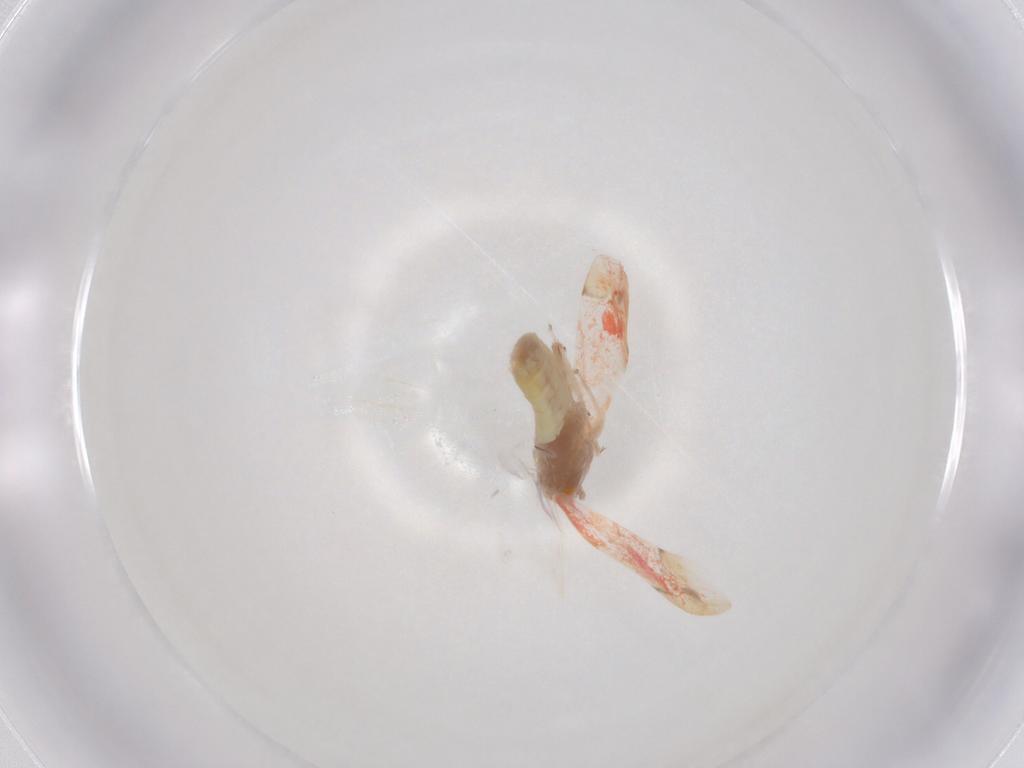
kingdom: Animalia
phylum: Arthropoda
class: Insecta
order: Hemiptera
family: Cicadellidae
